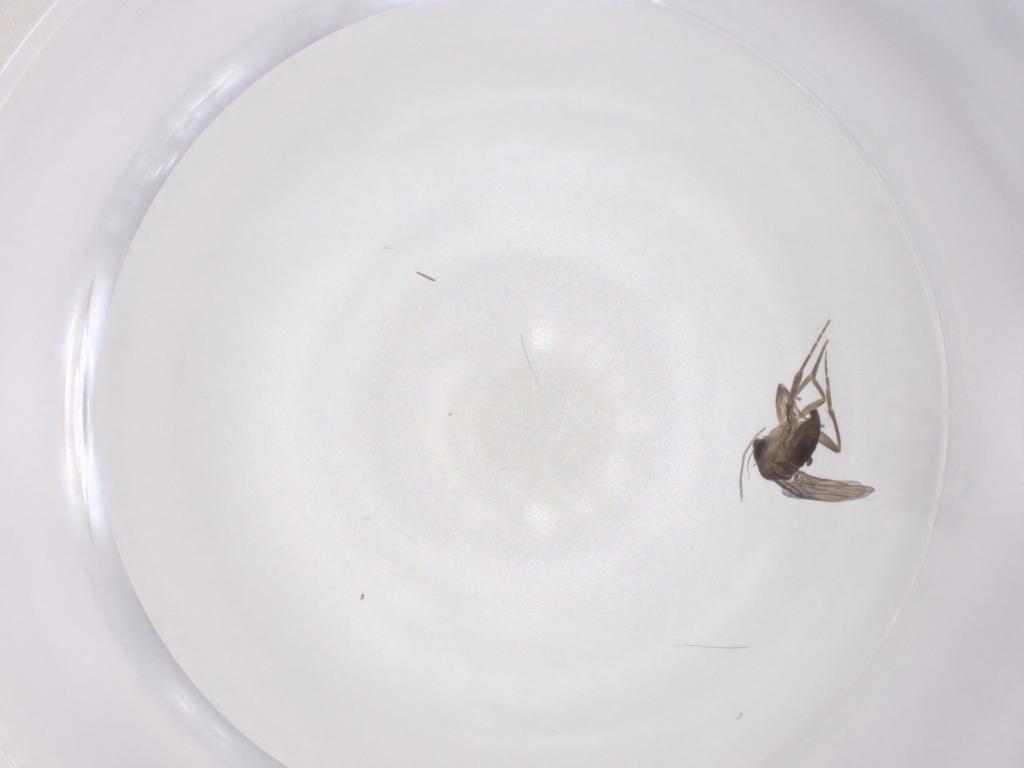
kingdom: Animalia
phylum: Arthropoda
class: Insecta
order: Diptera
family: Chironomidae
